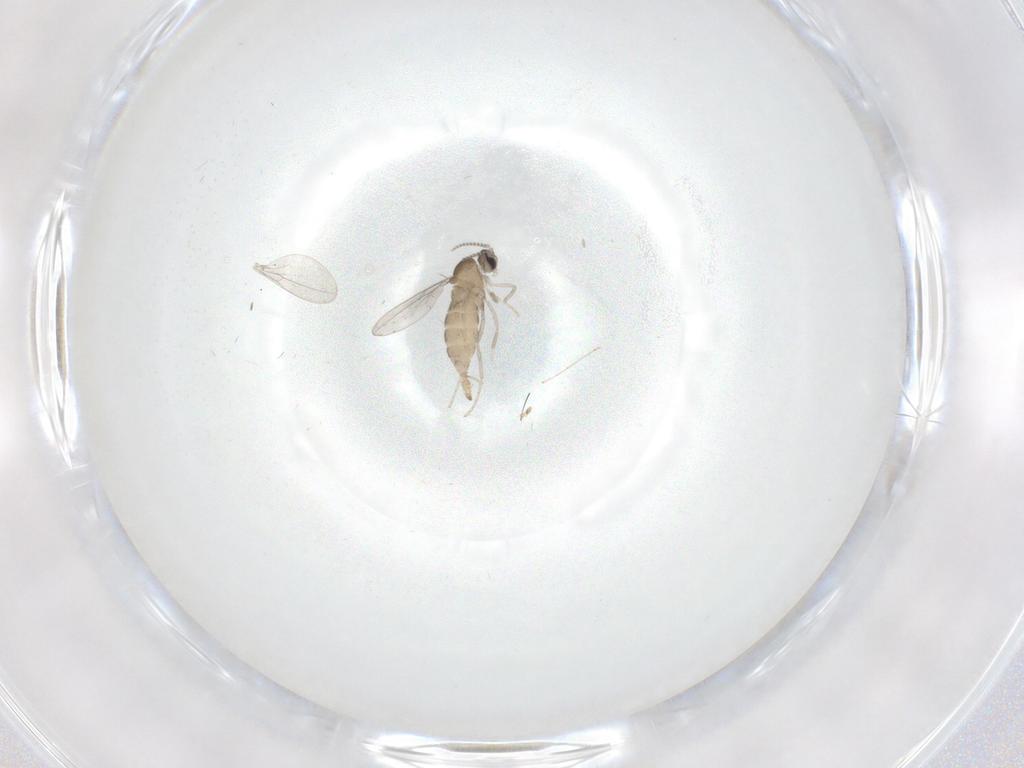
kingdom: Animalia
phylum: Arthropoda
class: Insecta
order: Diptera
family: Cecidomyiidae
